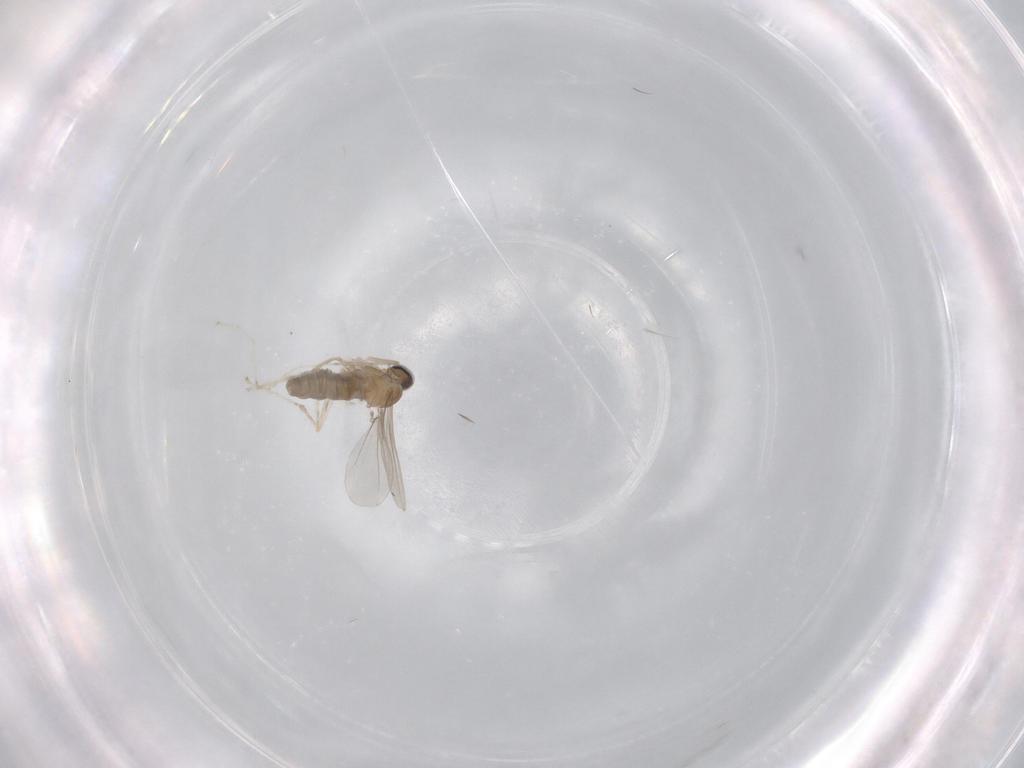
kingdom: Animalia
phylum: Arthropoda
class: Insecta
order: Diptera
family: Cecidomyiidae
